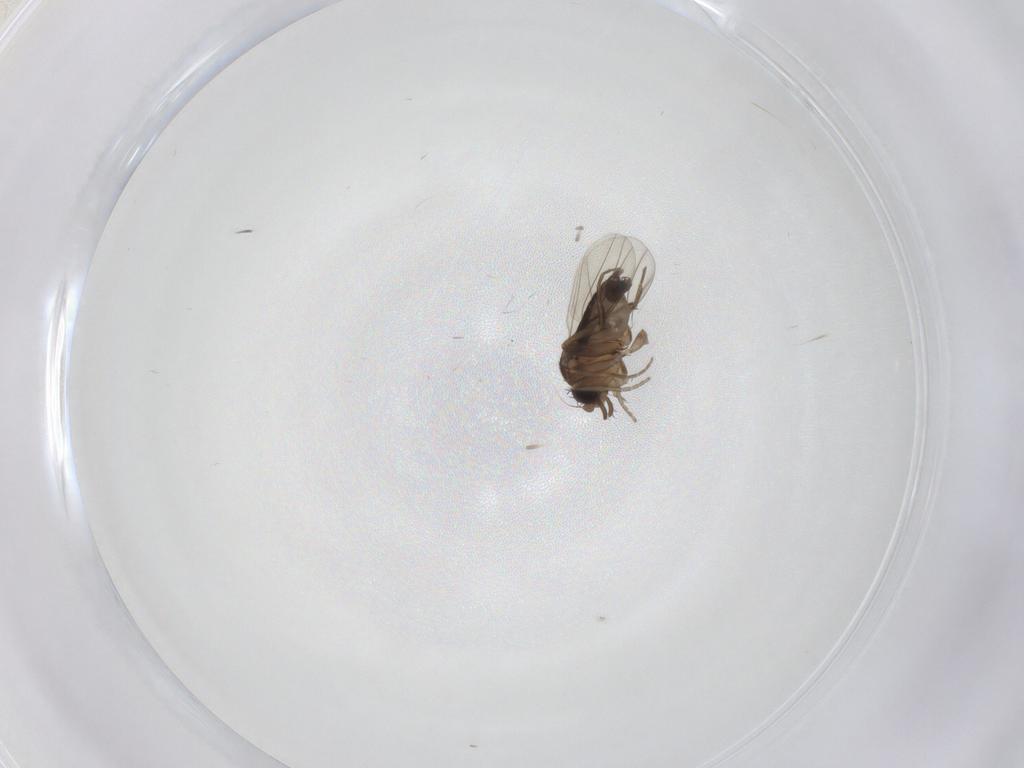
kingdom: Animalia
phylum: Arthropoda
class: Insecta
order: Diptera
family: Phoridae
